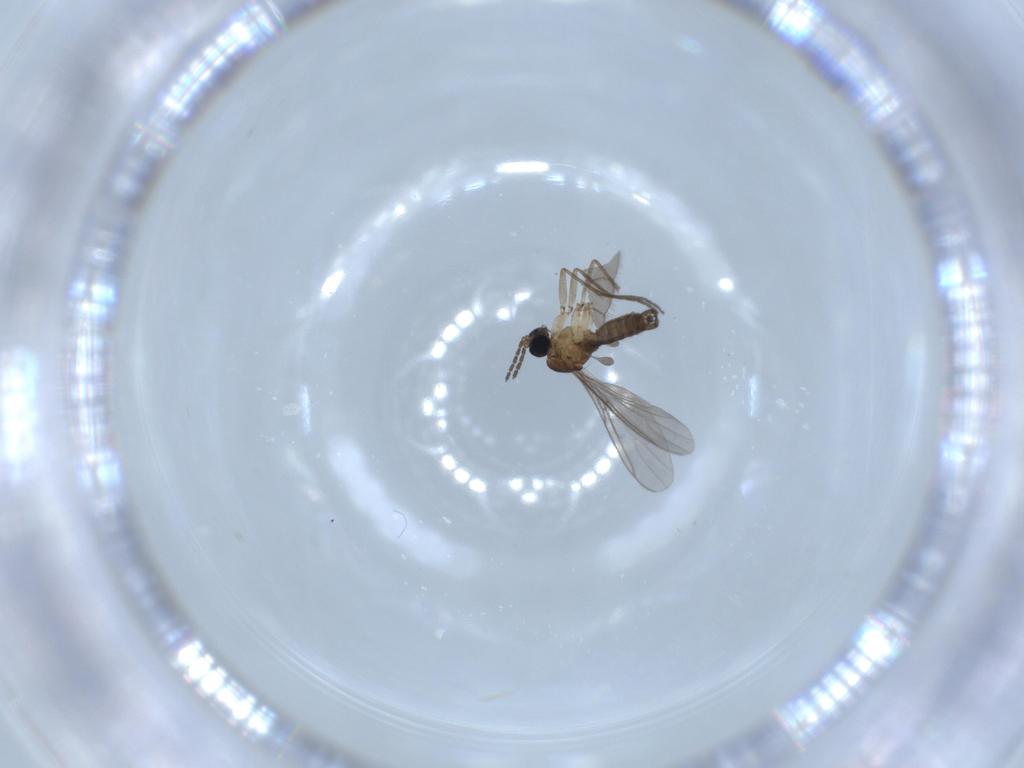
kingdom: Animalia
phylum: Arthropoda
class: Insecta
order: Diptera
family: Sciaridae
